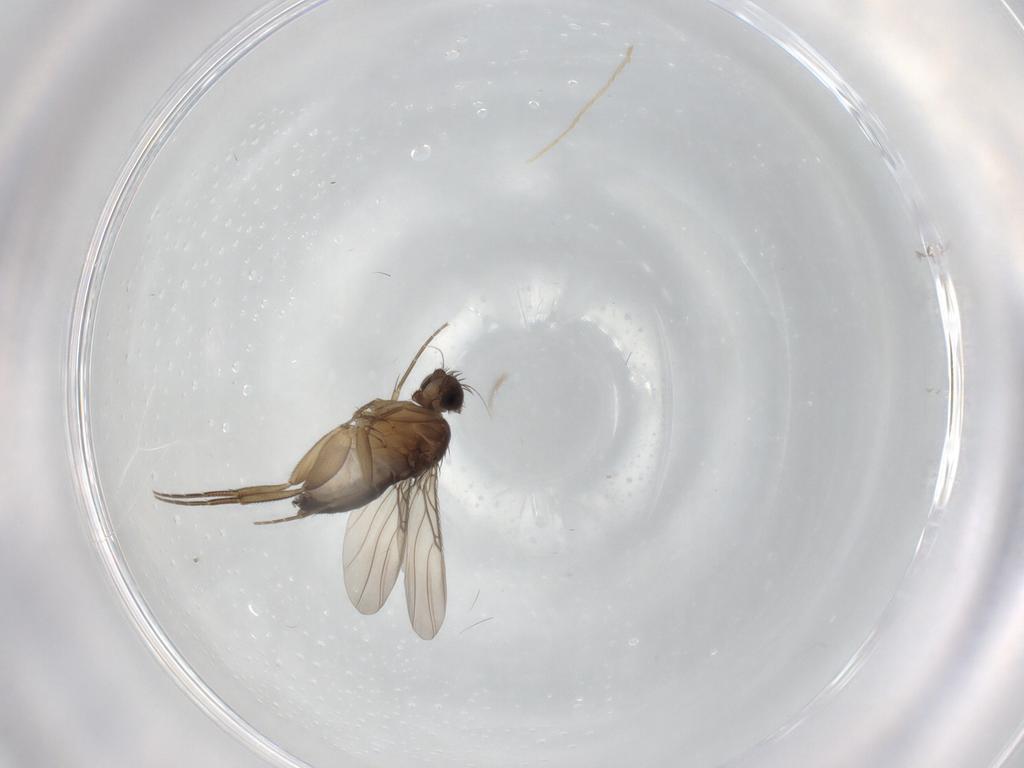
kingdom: Animalia
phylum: Arthropoda
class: Insecta
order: Diptera
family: Phoridae
